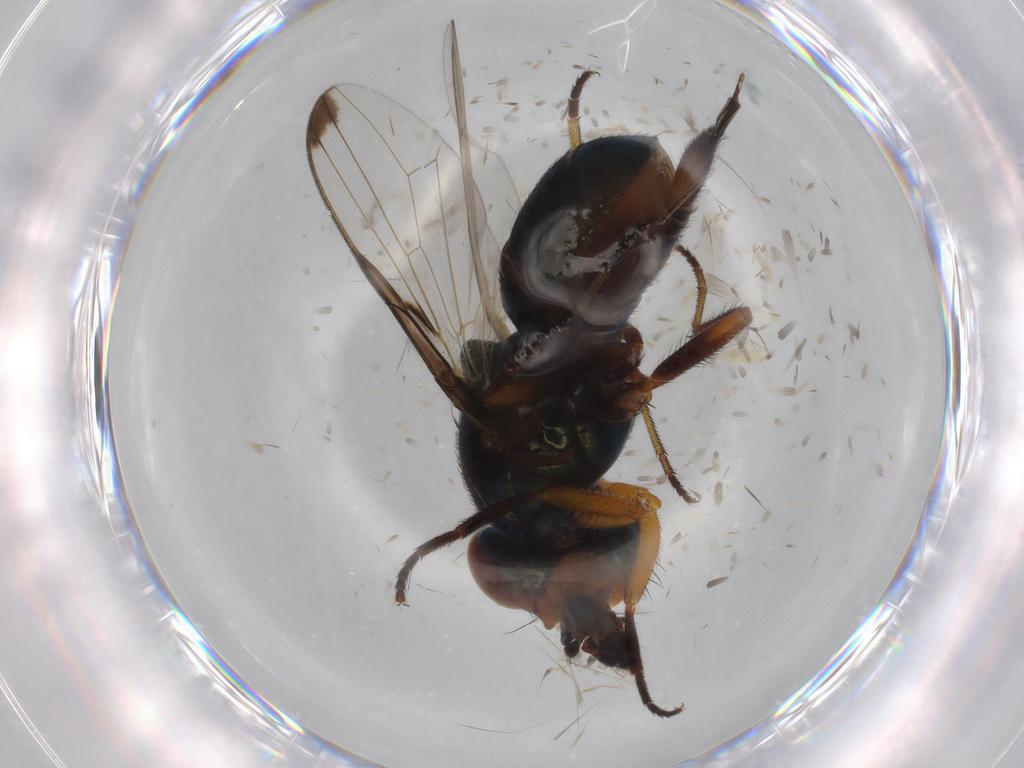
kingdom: Animalia
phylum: Arthropoda
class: Insecta
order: Diptera
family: Ulidiidae
